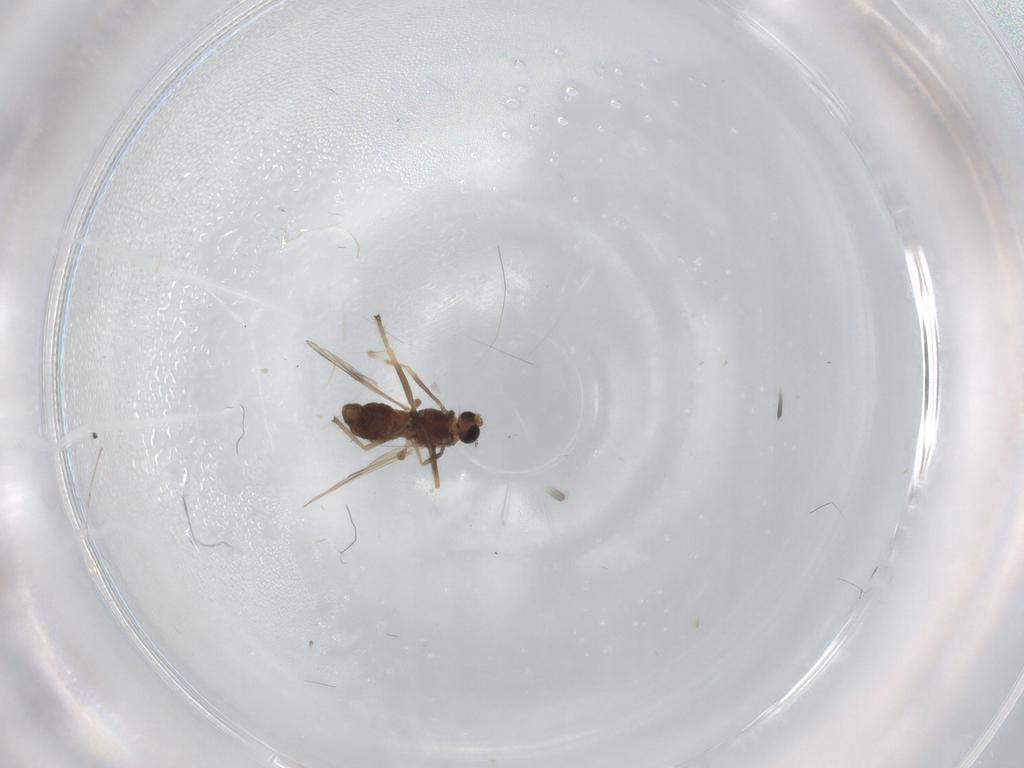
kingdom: Animalia
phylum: Arthropoda
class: Insecta
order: Diptera
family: Chironomidae
